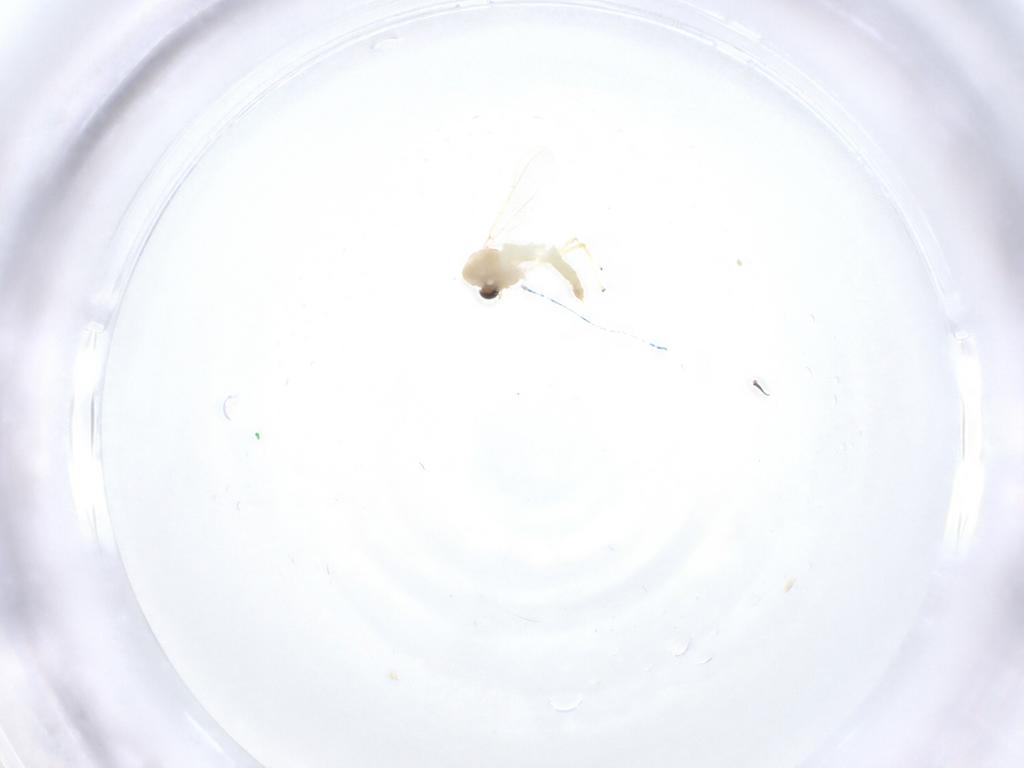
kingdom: Animalia
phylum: Arthropoda
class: Insecta
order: Diptera
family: Chironomidae
